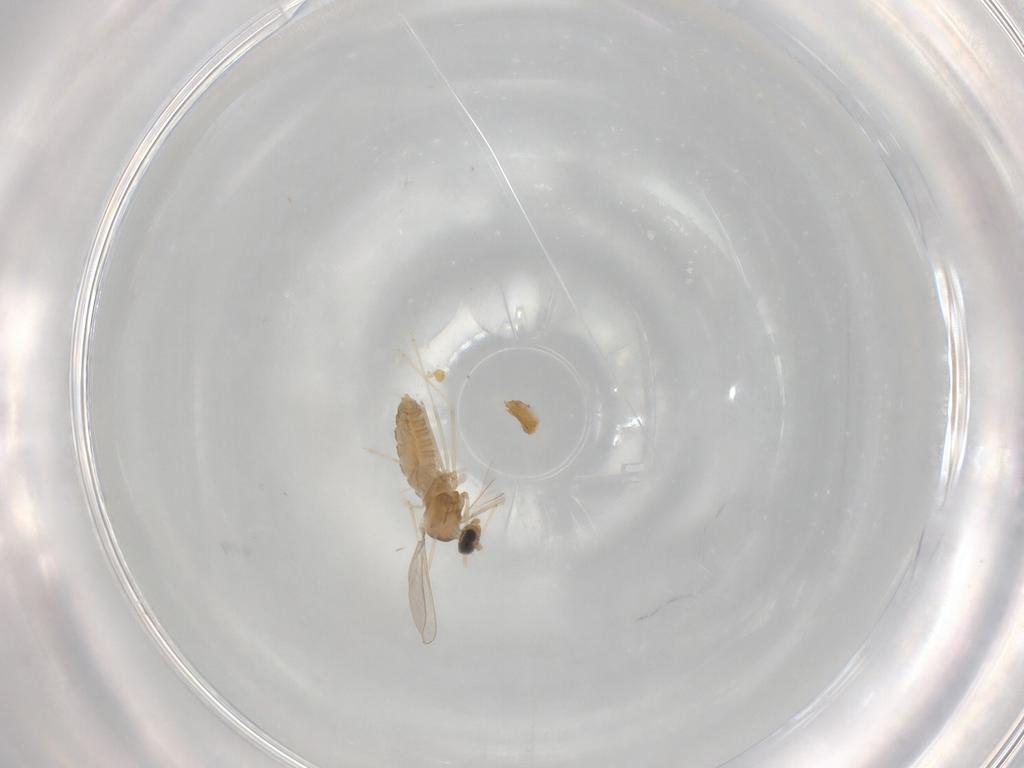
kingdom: Animalia
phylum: Arthropoda
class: Insecta
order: Diptera
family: Cecidomyiidae
